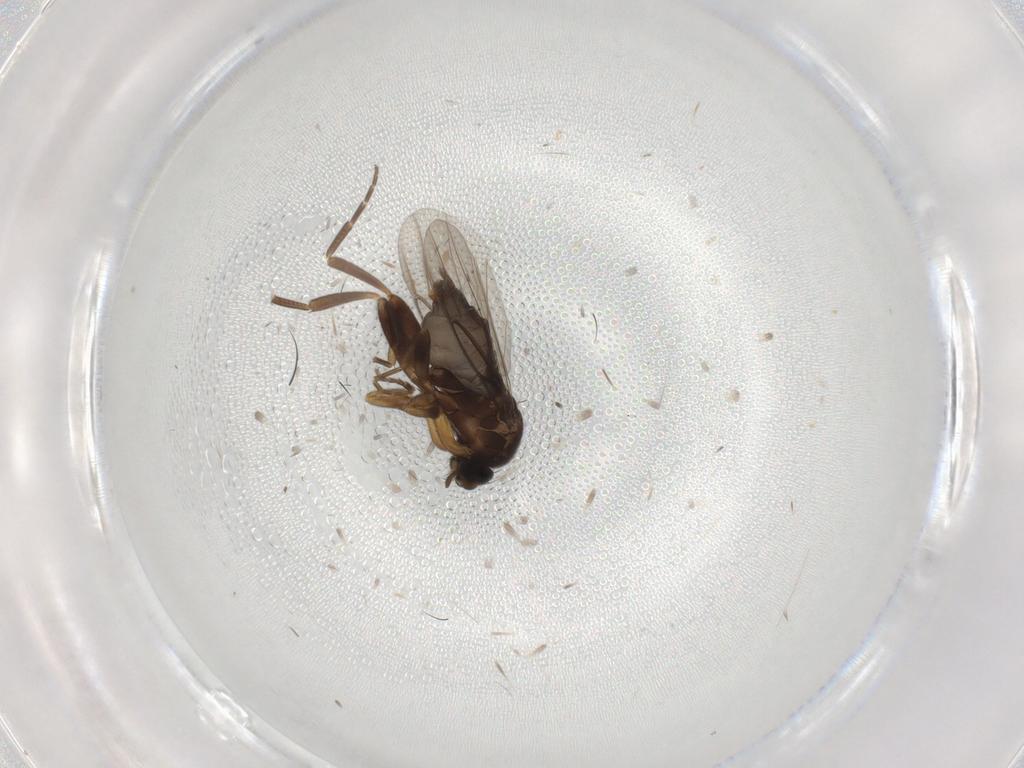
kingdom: Animalia
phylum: Arthropoda
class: Insecta
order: Diptera
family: Phoridae
